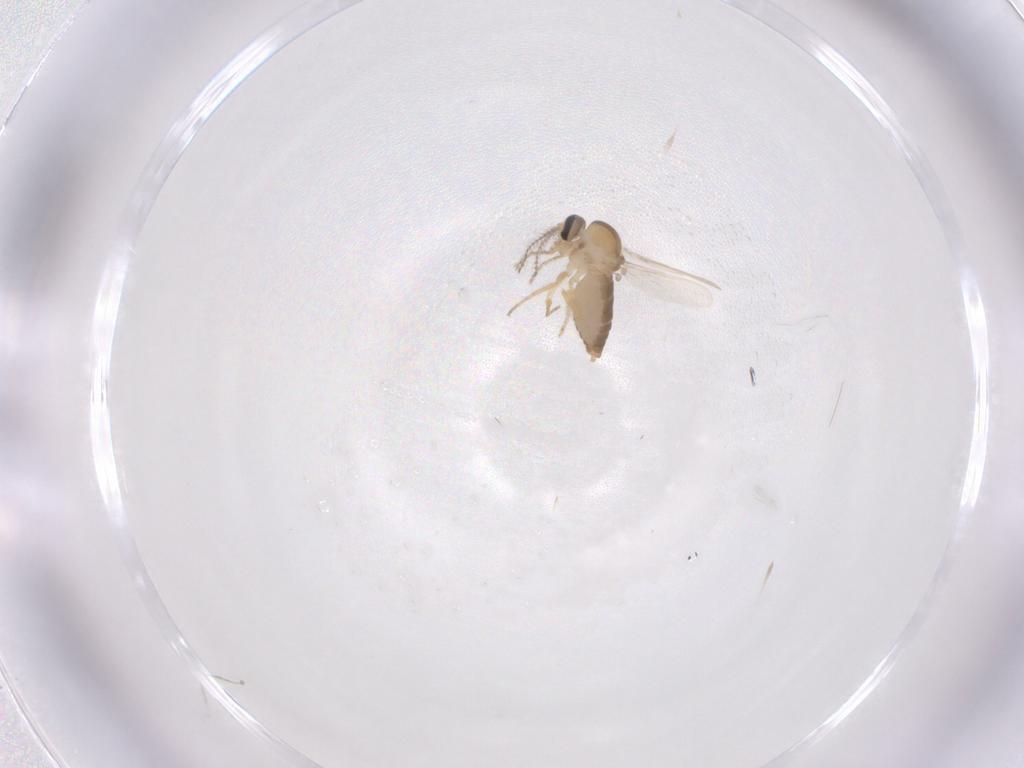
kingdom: Animalia
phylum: Arthropoda
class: Insecta
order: Diptera
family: Ceratopogonidae
